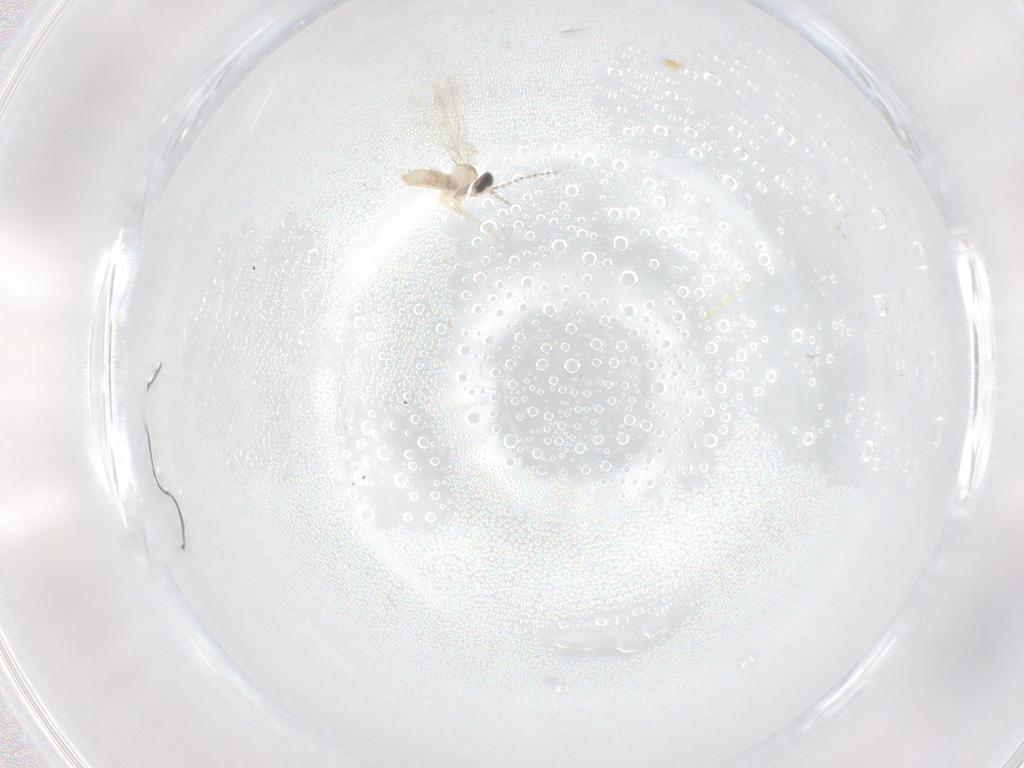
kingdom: Animalia
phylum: Arthropoda
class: Insecta
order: Diptera
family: Cecidomyiidae
